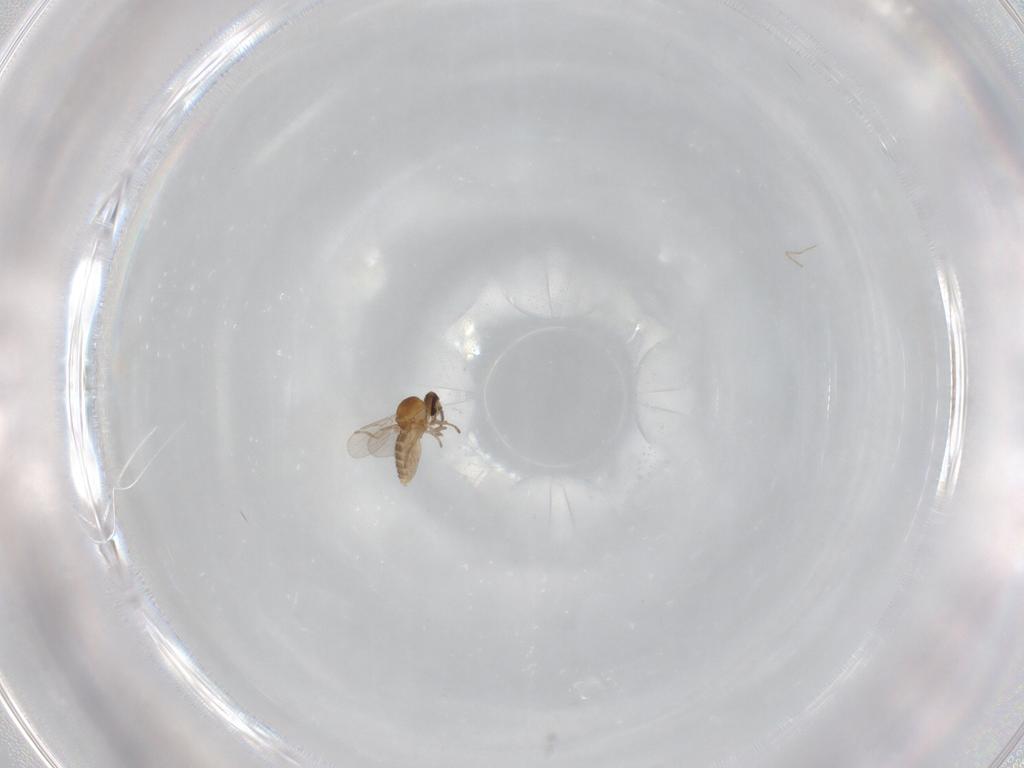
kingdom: Animalia
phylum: Arthropoda
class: Insecta
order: Diptera
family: Ceratopogonidae
